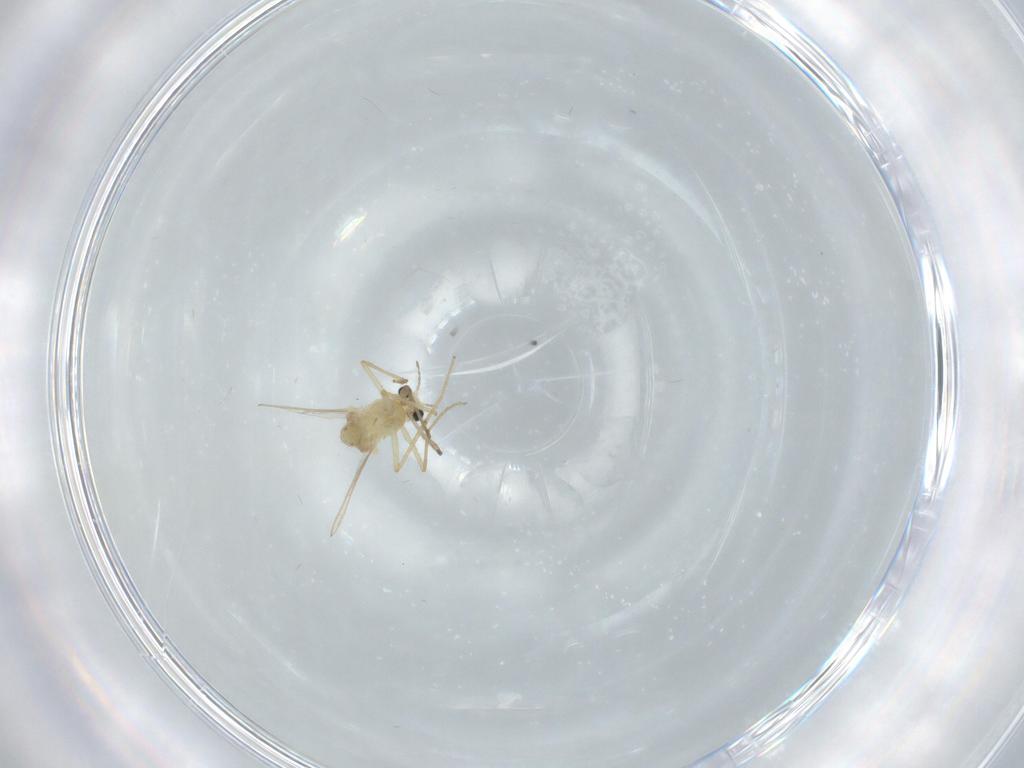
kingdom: Animalia
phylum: Arthropoda
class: Insecta
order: Diptera
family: Chironomidae
